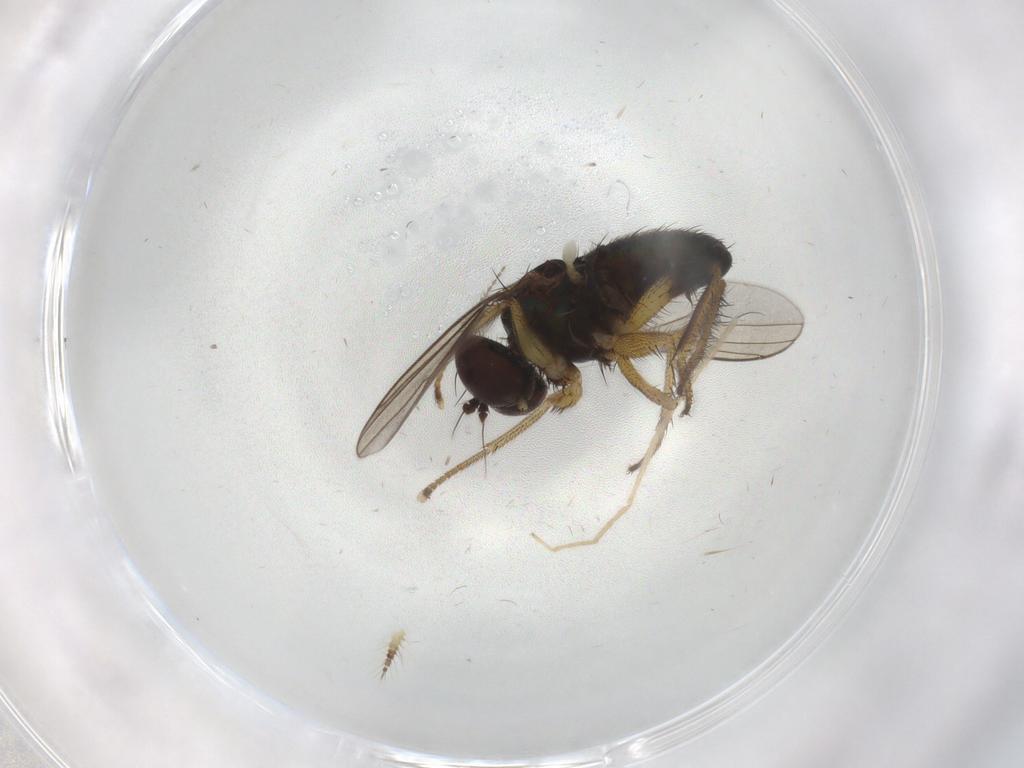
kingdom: Animalia
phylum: Arthropoda
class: Insecta
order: Diptera
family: Dolichopodidae
